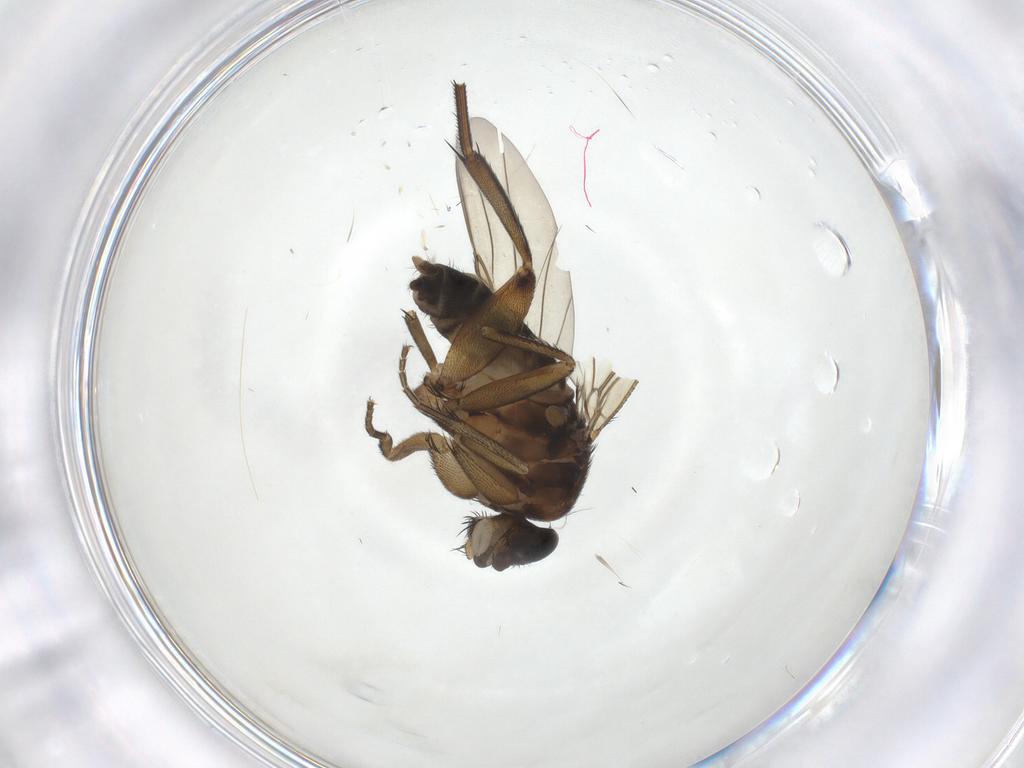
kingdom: Animalia
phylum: Arthropoda
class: Insecta
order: Diptera
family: Phoridae
